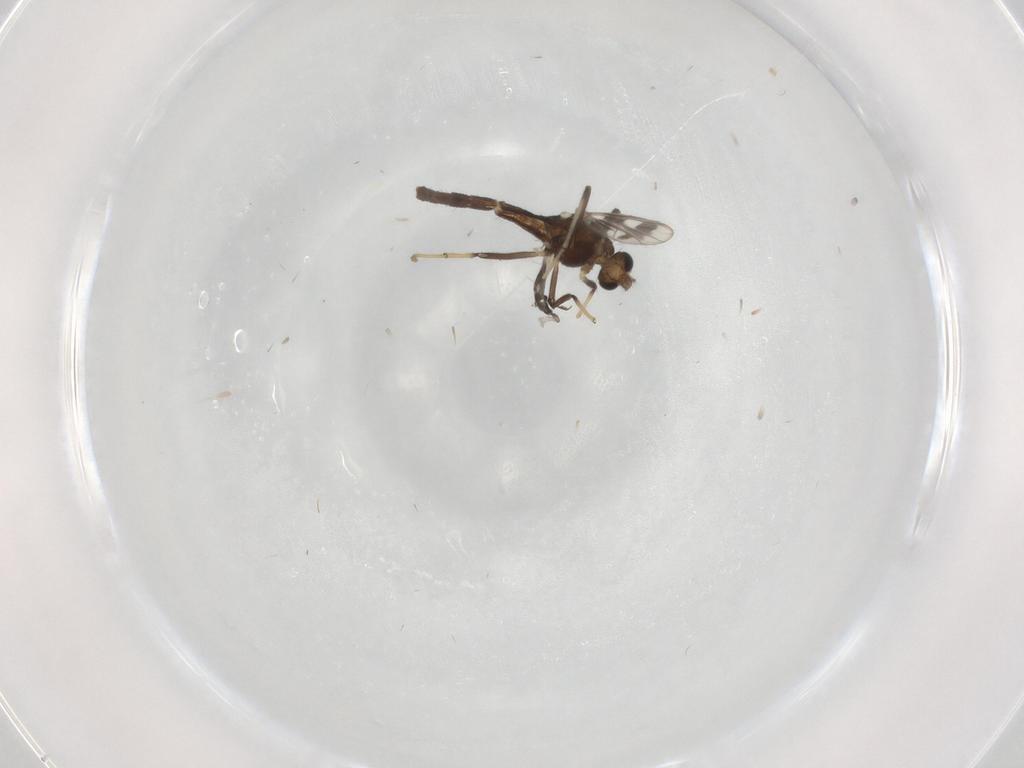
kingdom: Animalia
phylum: Arthropoda
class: Insecta
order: Diptera
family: Chironomidae
